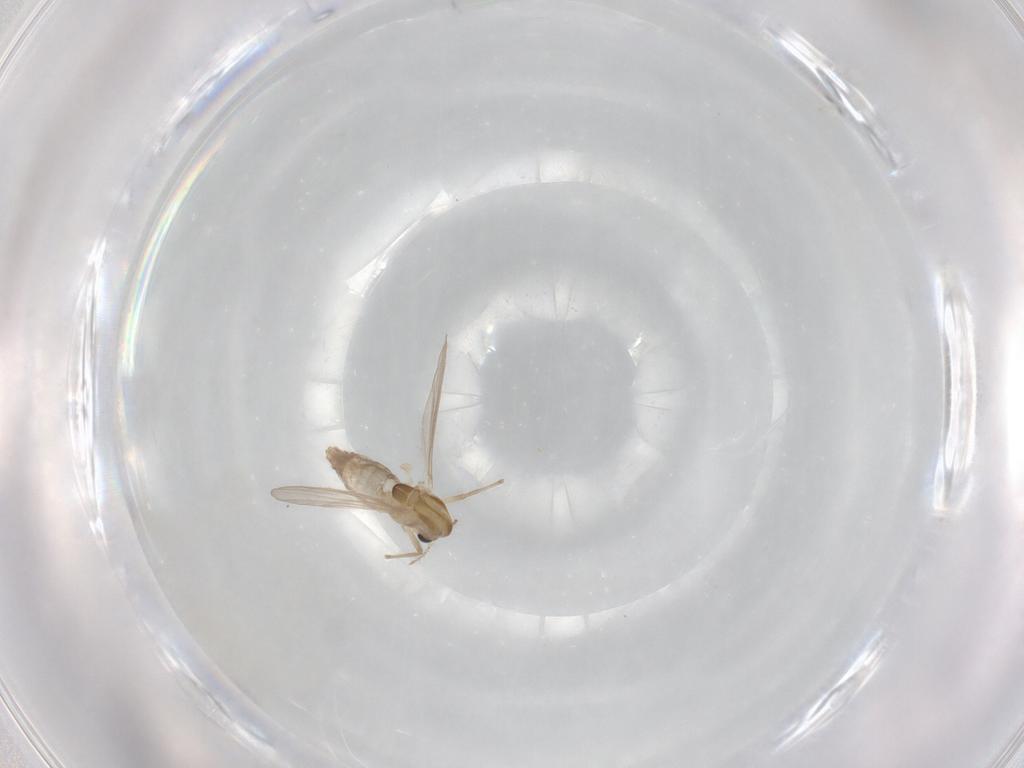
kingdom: Animalia
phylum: Arthropoda
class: Insecta
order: Diptera
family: Chironomidae
